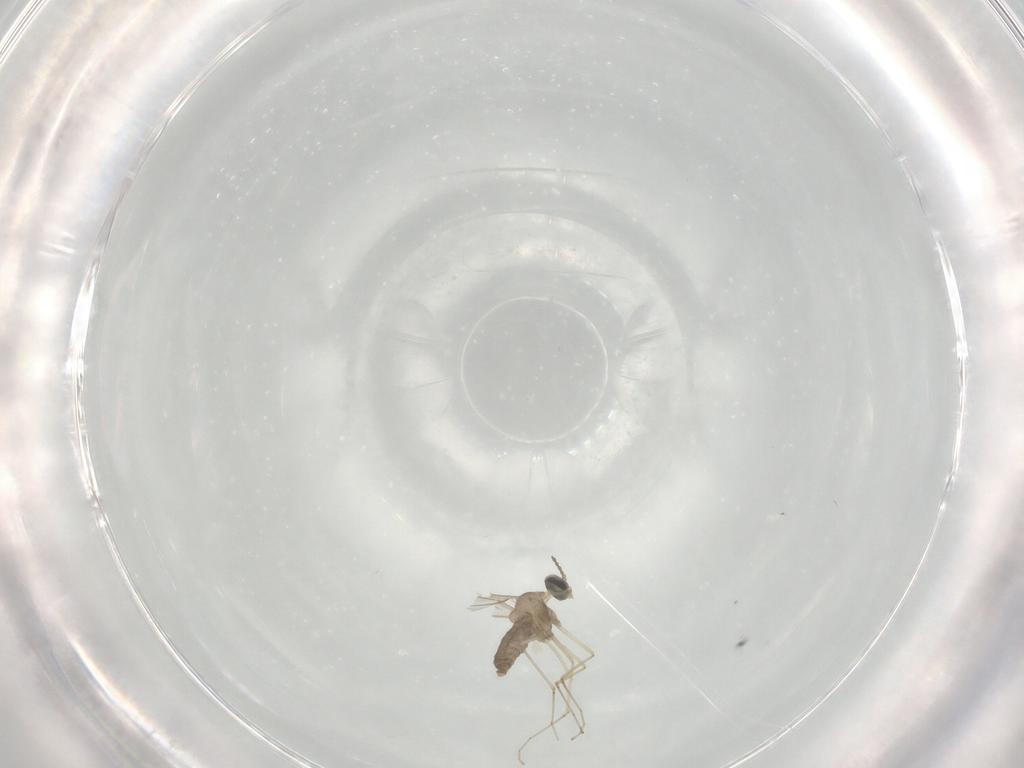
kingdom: Animalia
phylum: Arthropoda
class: Insecta
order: Diptera
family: Cecidomyiidae
